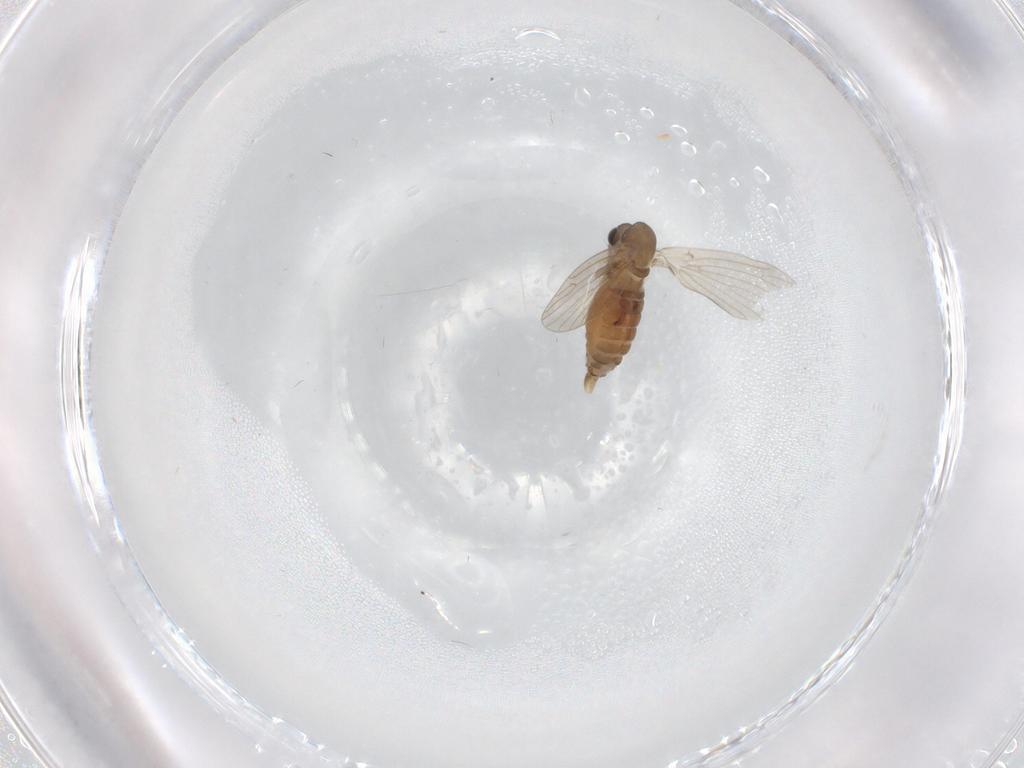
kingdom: Animalia
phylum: Arthropoda
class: Insecta
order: Diptera
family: Psychodidae
